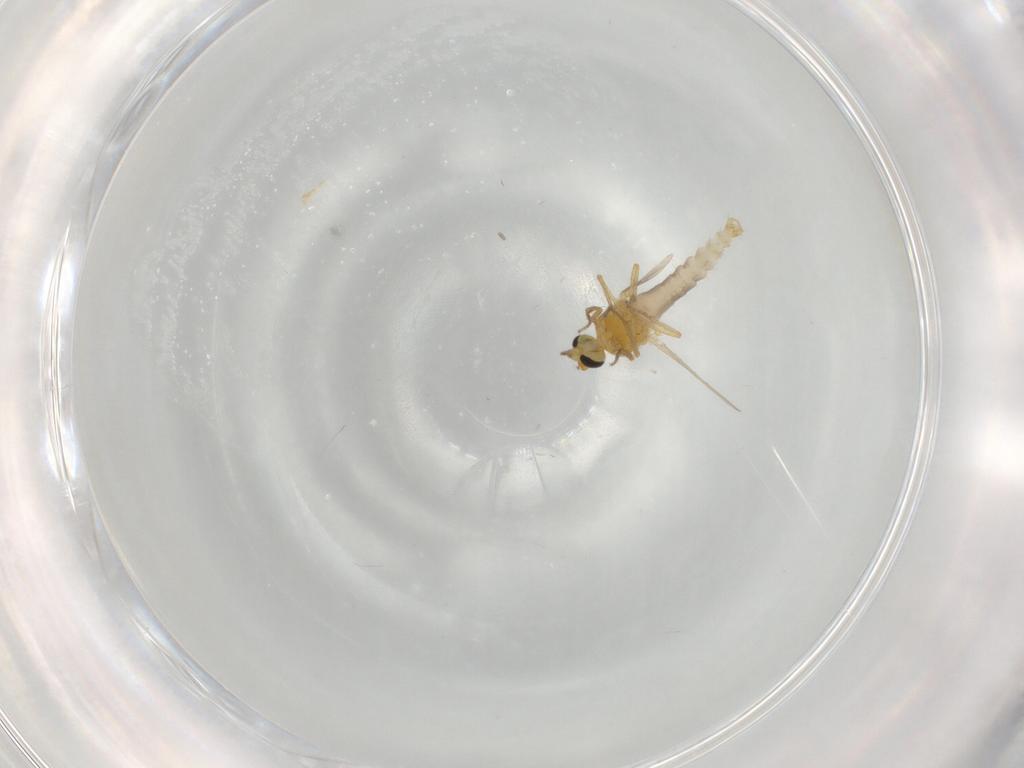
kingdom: Animalia
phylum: Arthropoda
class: Insecta
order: Diptera
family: Ceratopogonidae
